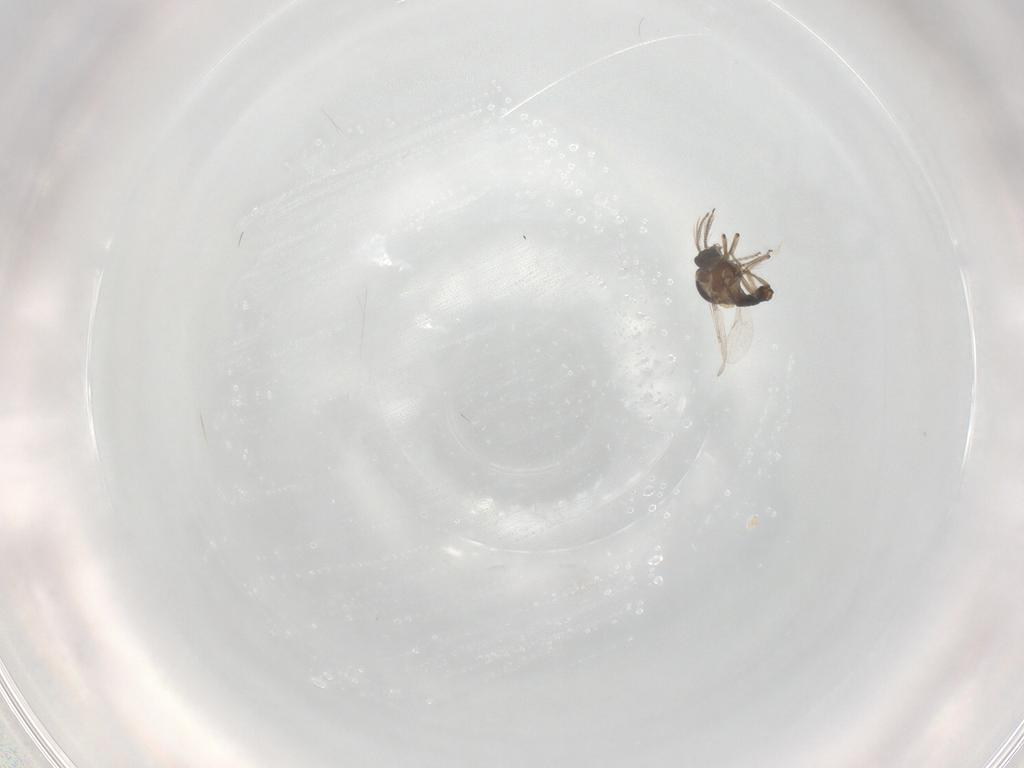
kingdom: Animalia
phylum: Arthropoda
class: Insecta
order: Diptera
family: Ceratopogonidae
